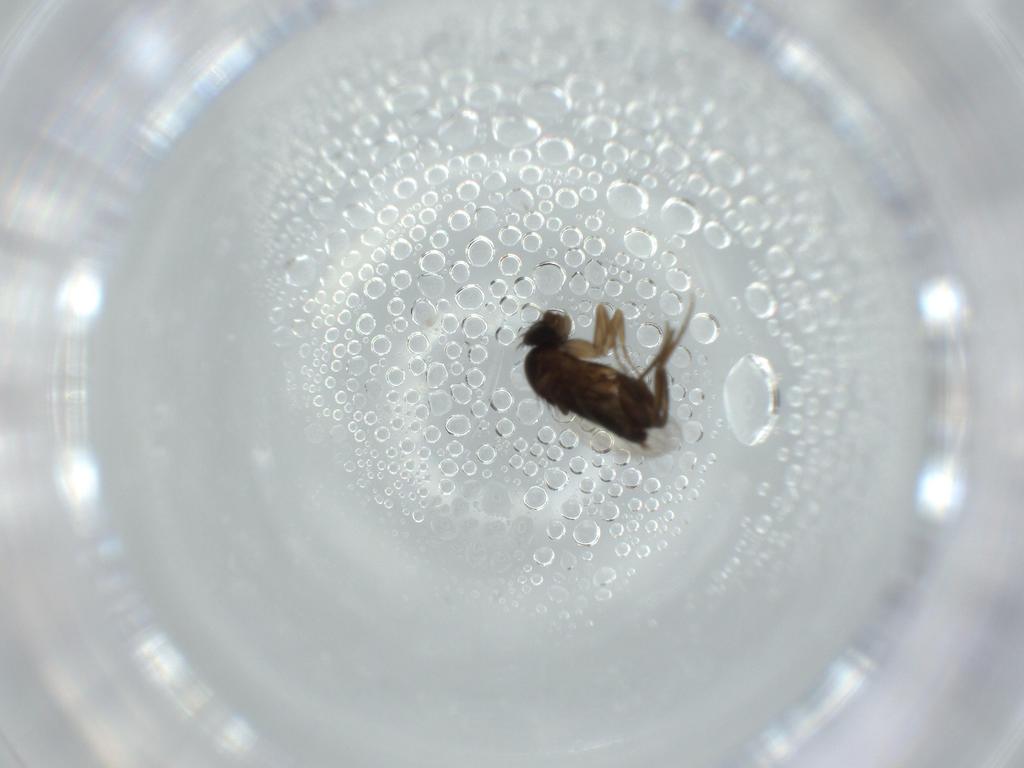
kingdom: Animalia
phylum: Arthropoda
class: Insecta
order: Diptera
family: Phoridae
